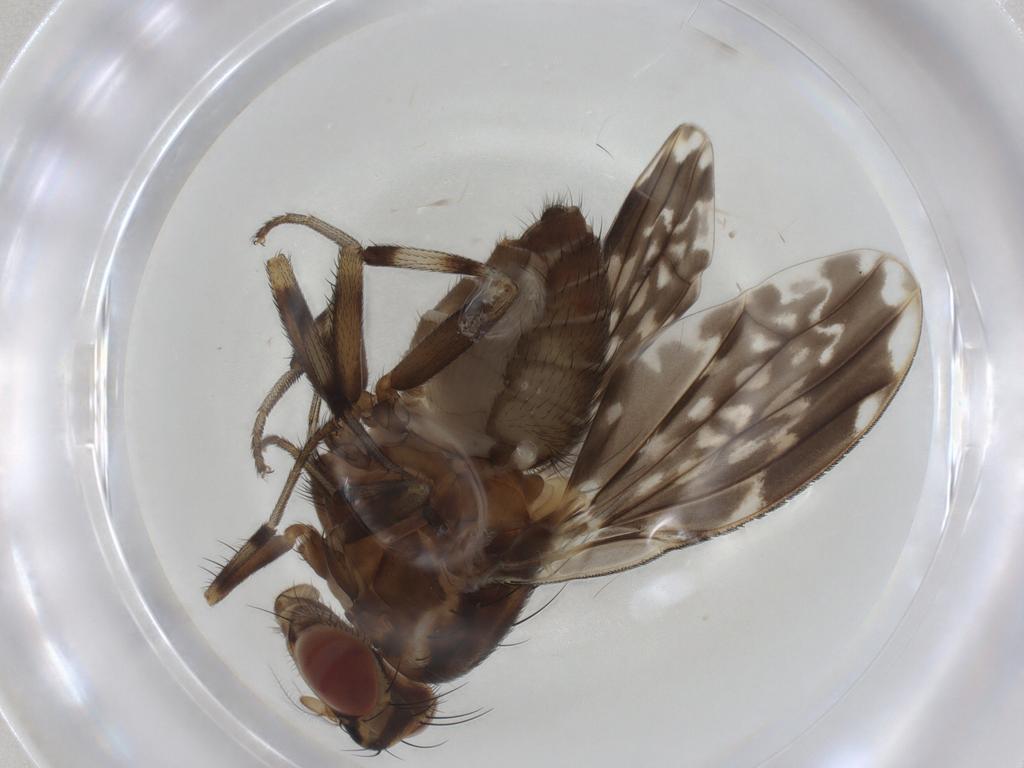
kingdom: Animalia
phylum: Arthropoda
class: Insecta
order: Diptera
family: Lauxaniidae
